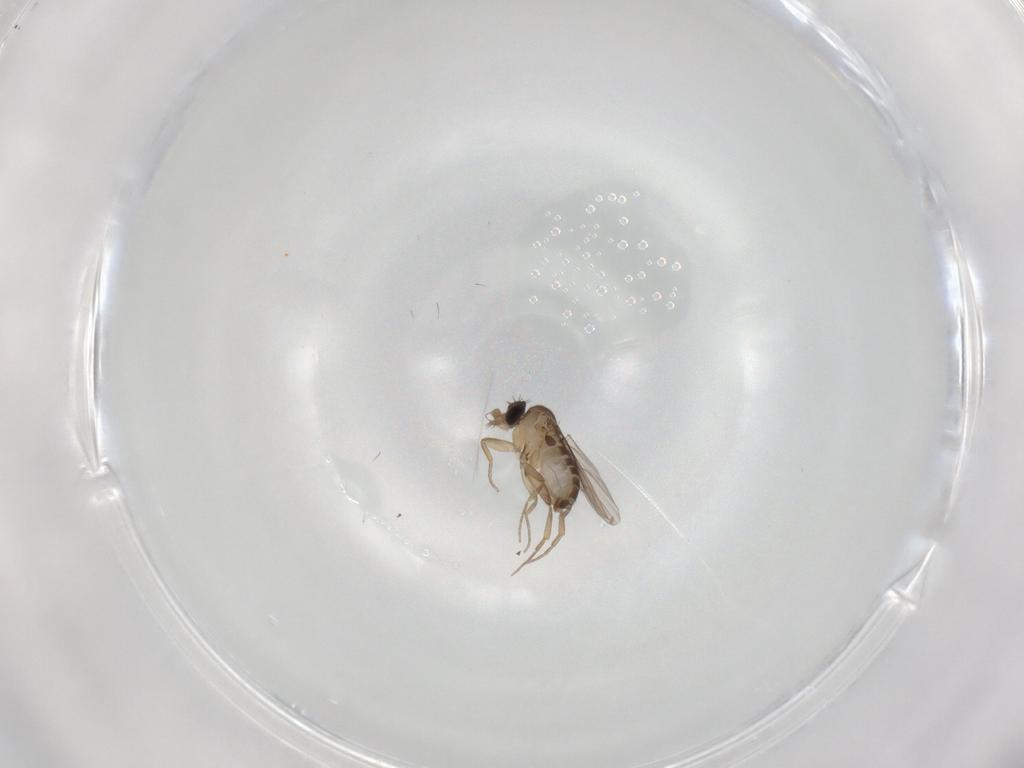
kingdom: Animalia
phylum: Arthropoda
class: Insecta
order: Diptera
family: Phoridae
